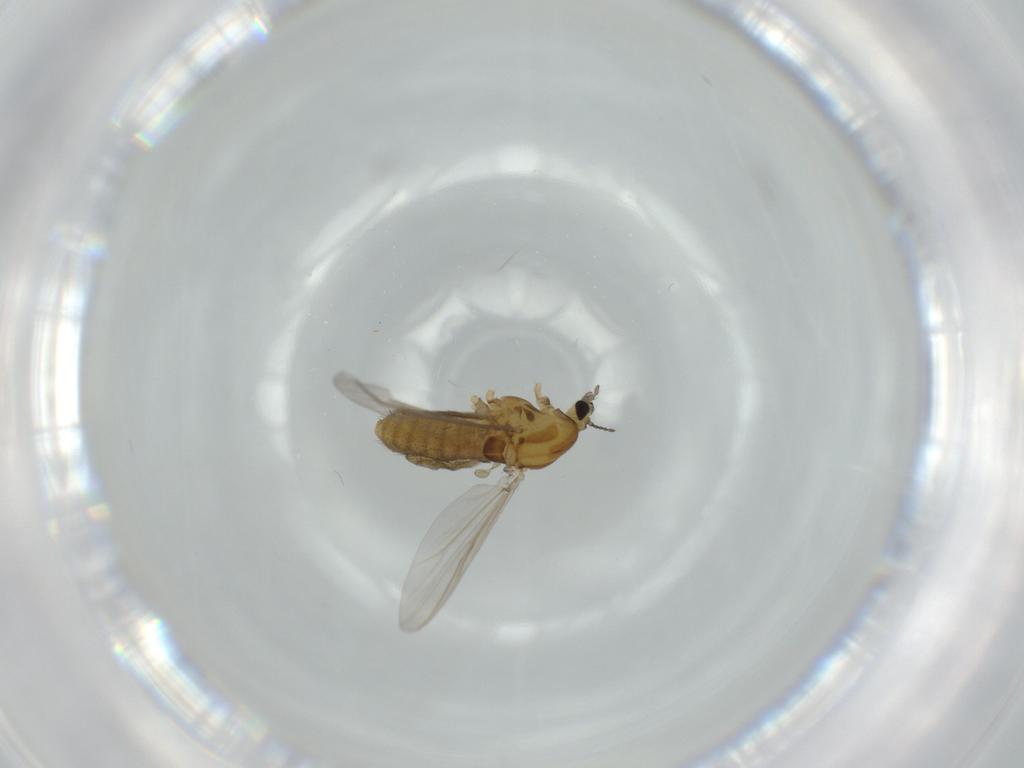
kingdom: Animalia
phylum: Arthropoda
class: Insecta
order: Diptera
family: Chironomidae
